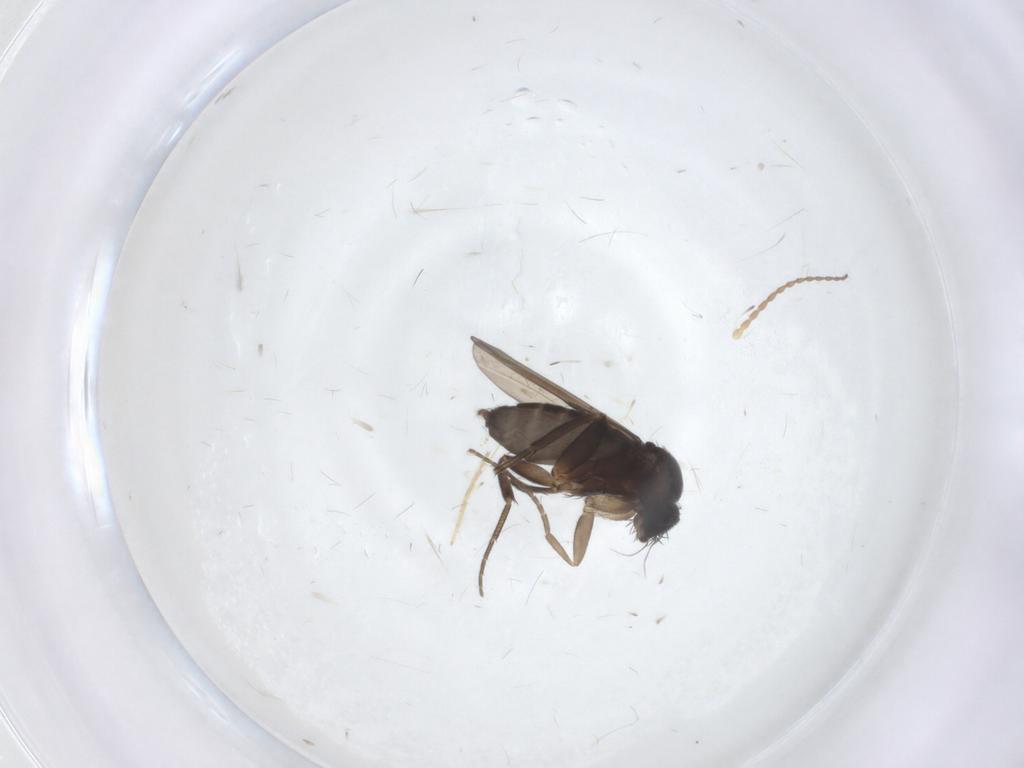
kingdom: Animalia
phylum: Arthropoda
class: Insecta
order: Diptera
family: Phoridae
